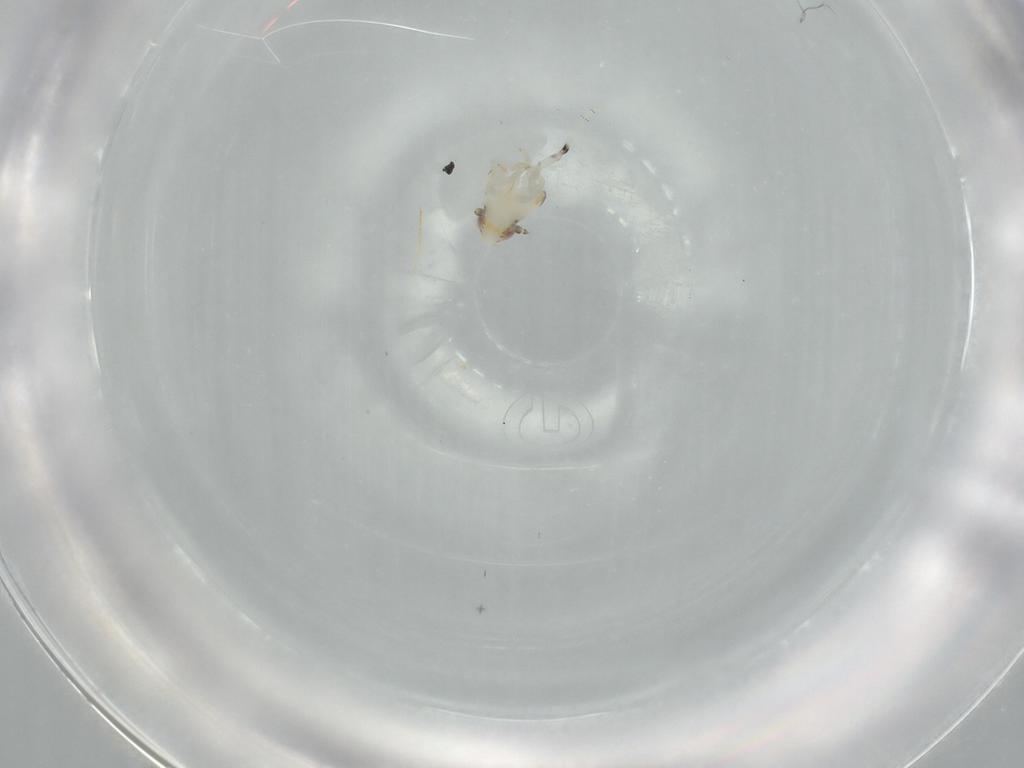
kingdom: Animalia
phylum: Arthropoda
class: Insecta
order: Hemiptera
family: Nogodinidae
